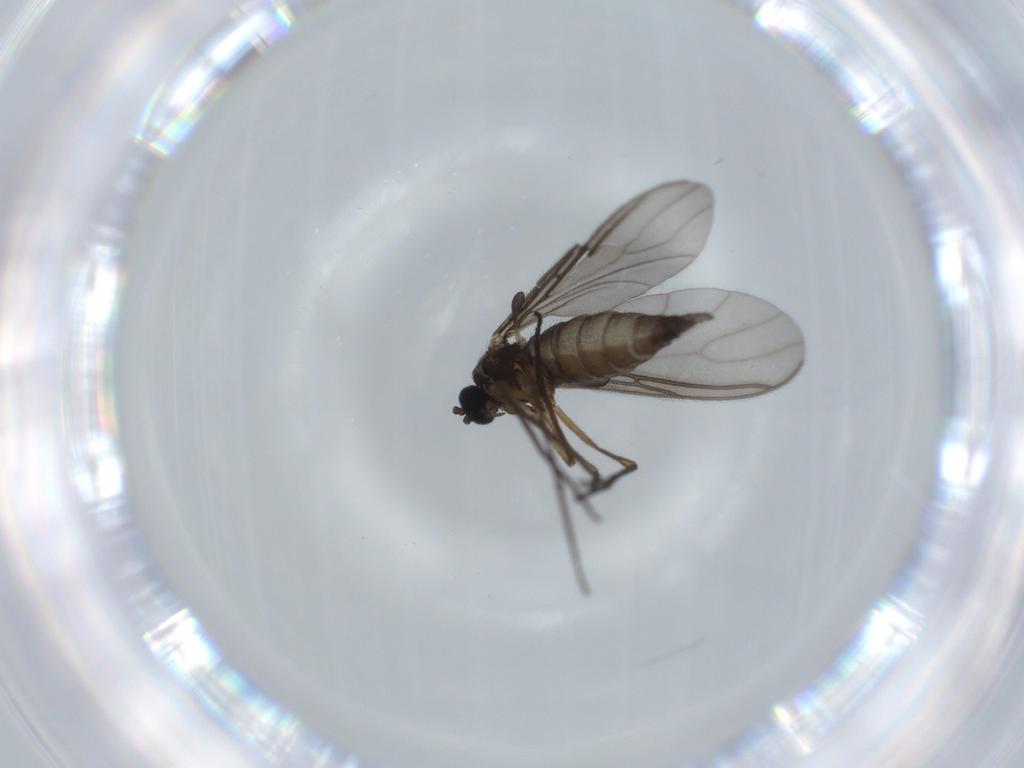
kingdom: Animalia
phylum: Arthropoda
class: Insecta
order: Diptera
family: Sciaridae
